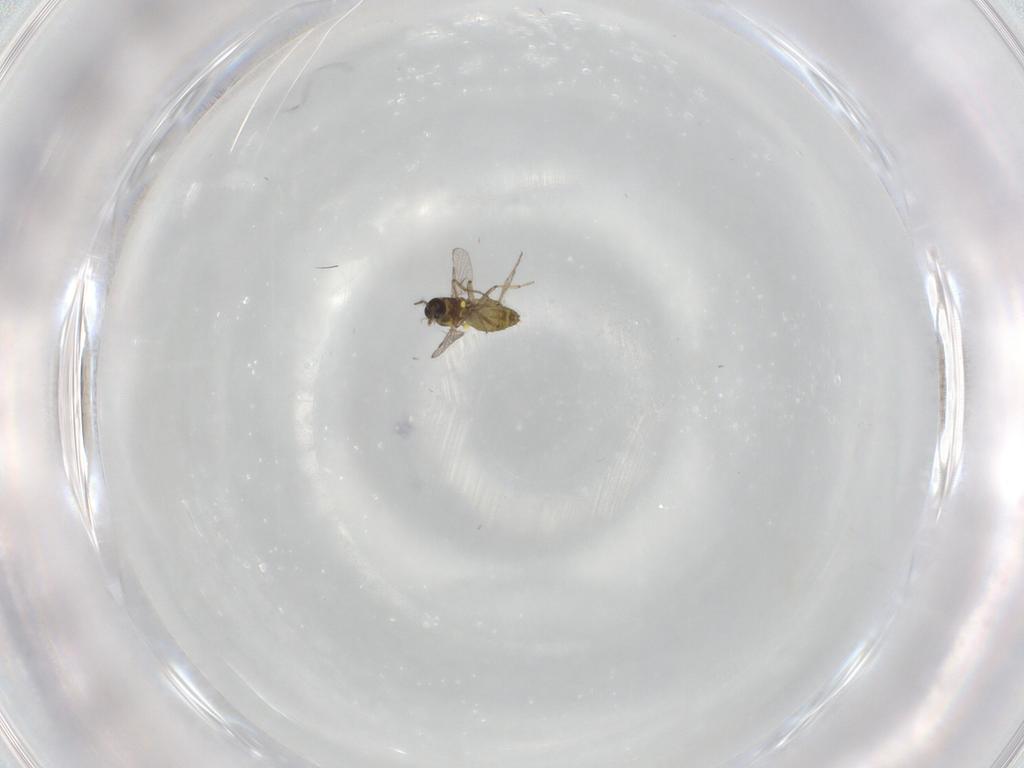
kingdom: Animalia
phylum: Arthropoda
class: Insecta
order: Diptera
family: Ceratopogonidae
